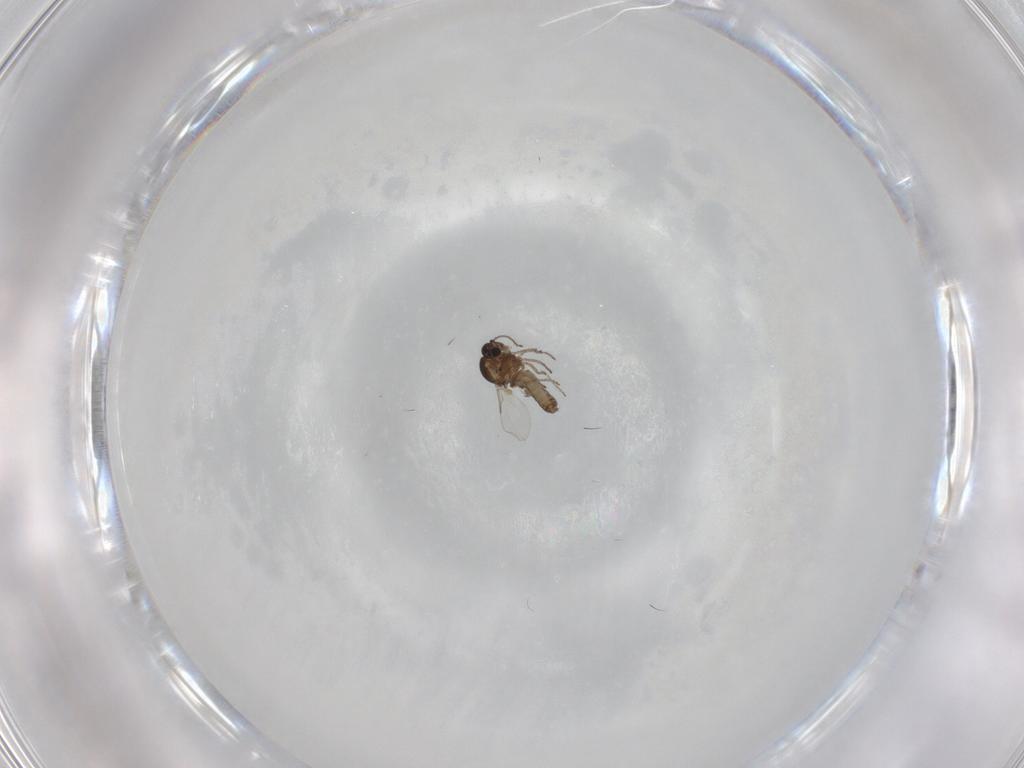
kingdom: Animalia
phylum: Arthropoda
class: Insecta
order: Diptera
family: Ceratopogonidae
